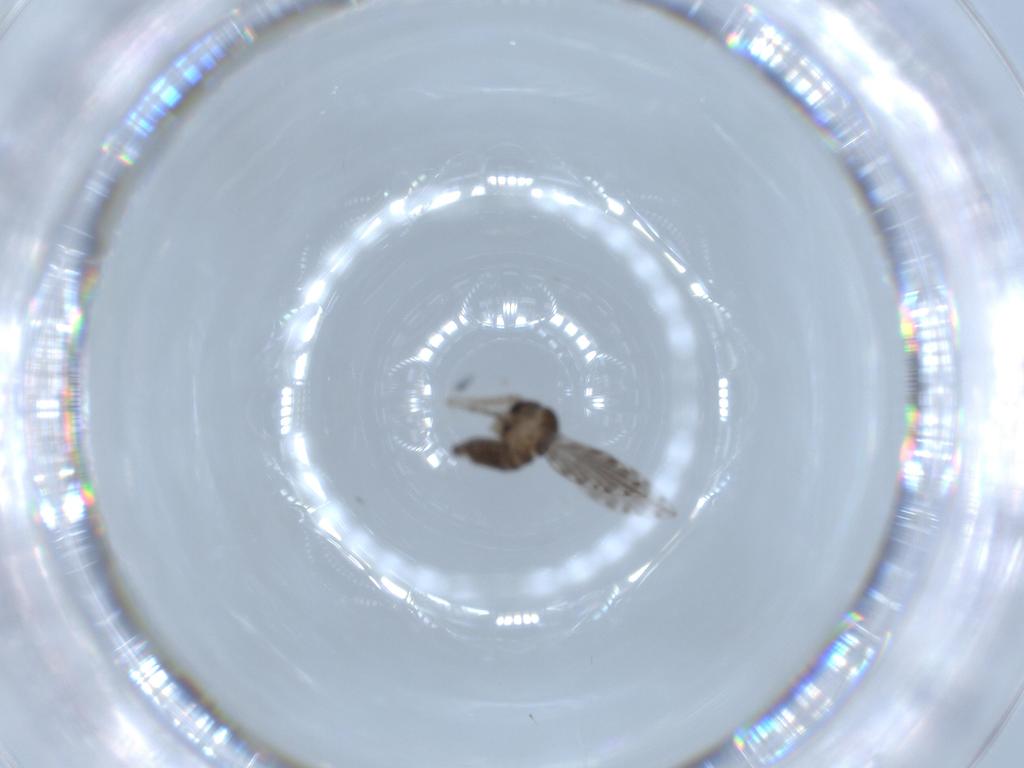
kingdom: Animalia
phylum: Arthropoda
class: Insecta
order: Diptera
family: Psychodidae
